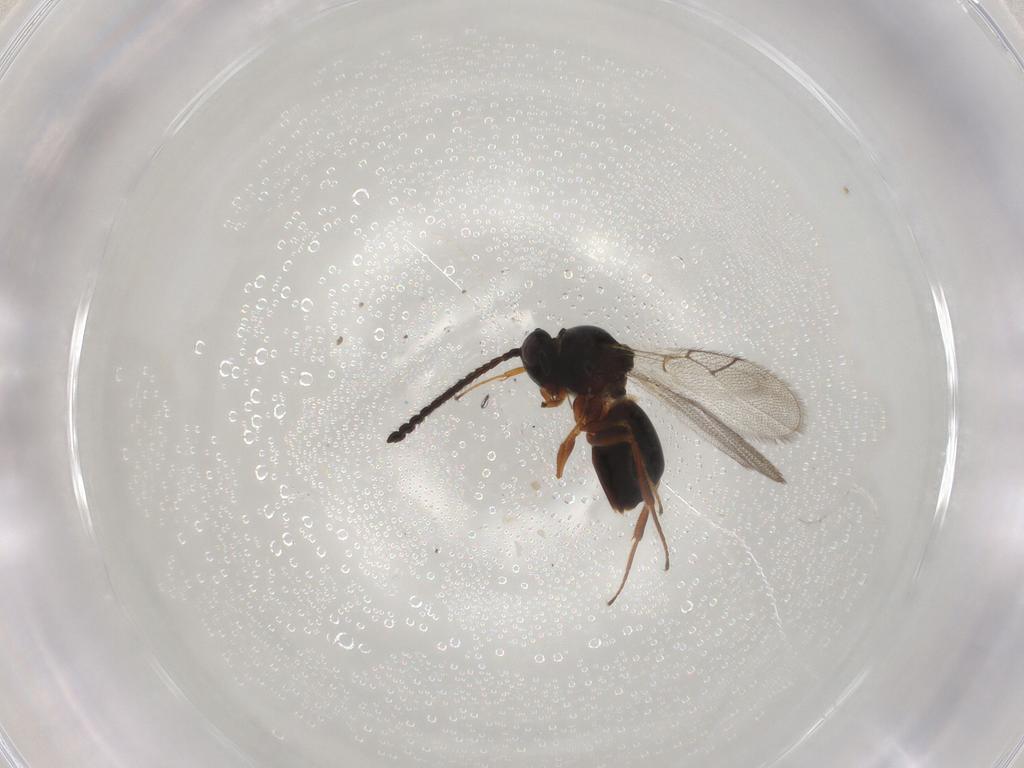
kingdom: Animalia
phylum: Arthropoda
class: Insecta
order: Hymenoptera
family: Figitidae
